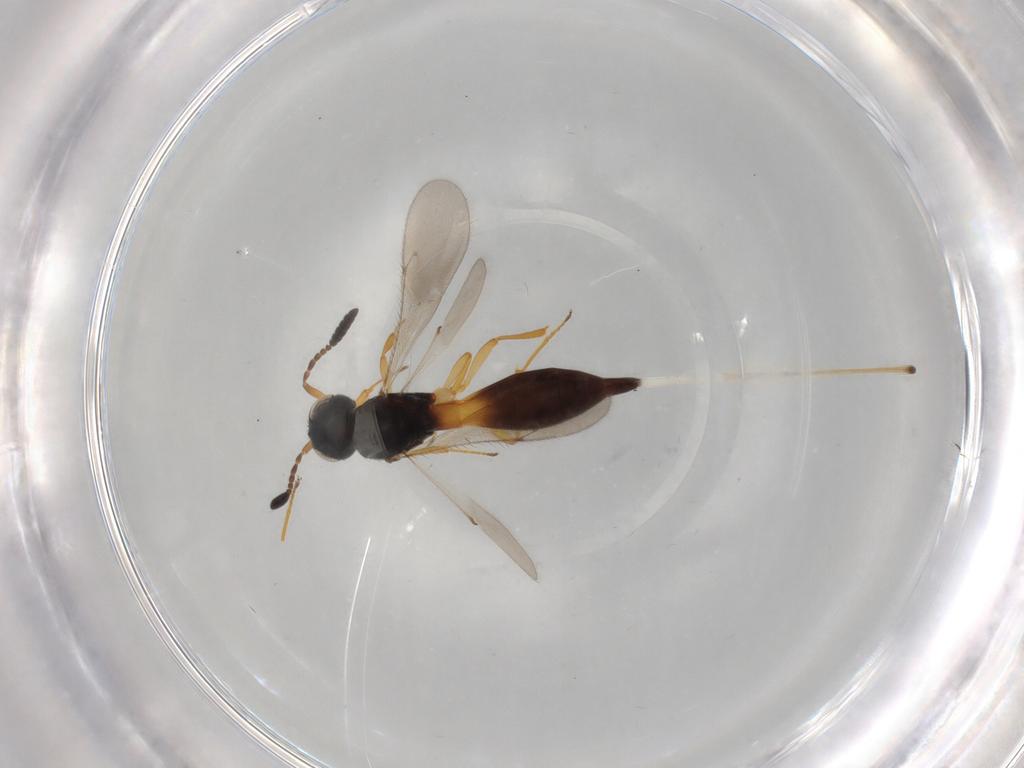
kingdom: Animalia
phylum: Arthropoda
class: Insecta
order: Hymenoptera
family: Scelionidae
